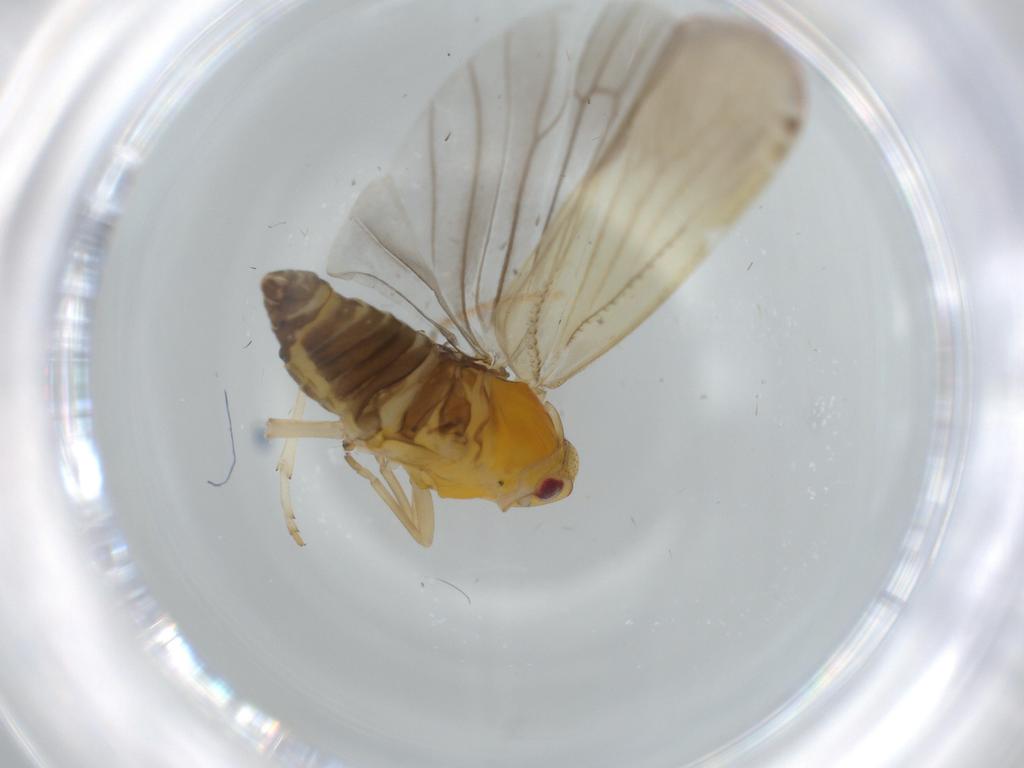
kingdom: Animalia
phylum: Arthropoda
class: Insecta
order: Hemiptera
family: Derbidae
